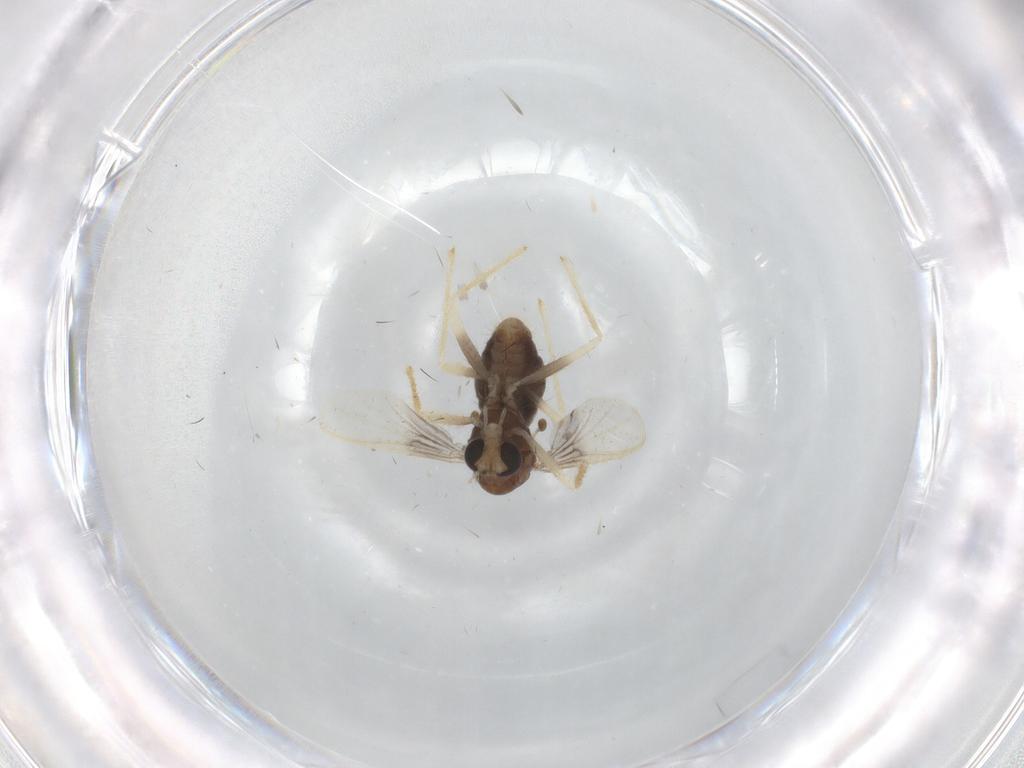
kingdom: Animalia
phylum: Arthropoda
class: Insecta
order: Diptera
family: Chironomidae
